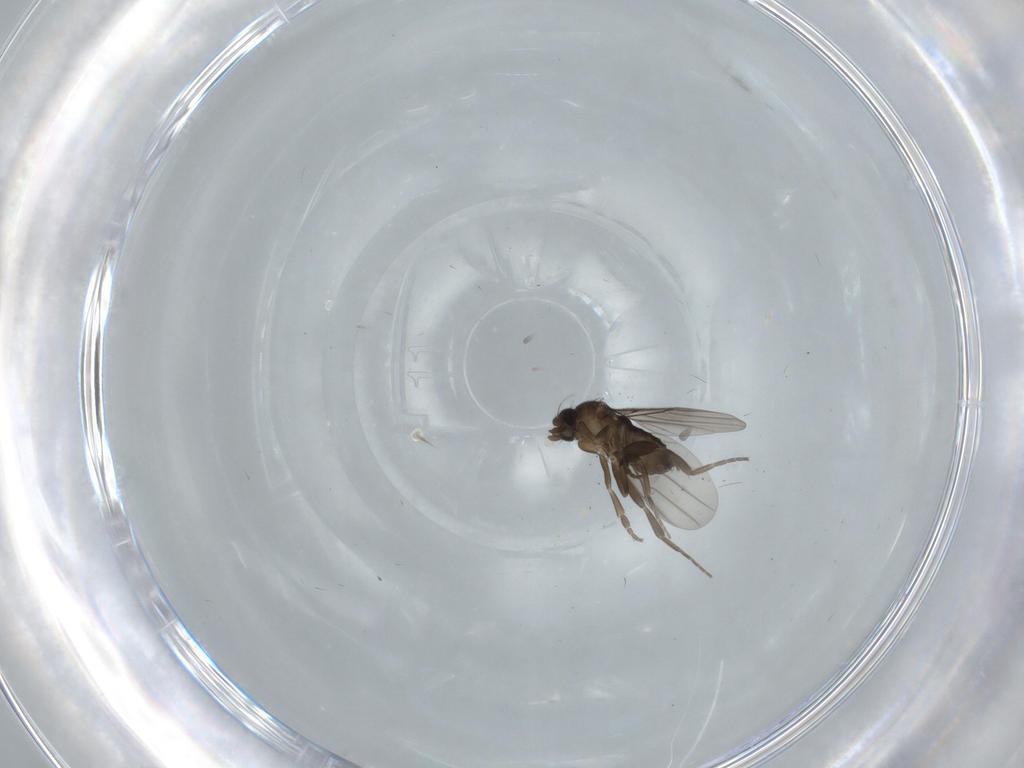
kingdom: Animalia
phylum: Arthropoda
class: Insecta
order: Diptera
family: Phoridae
